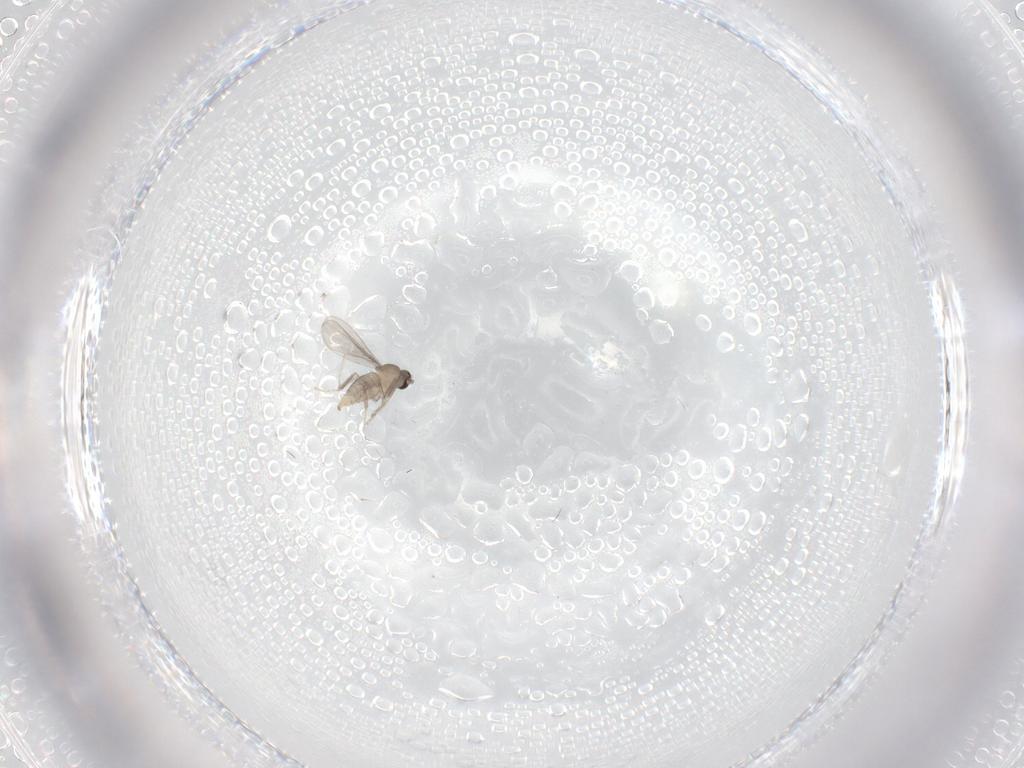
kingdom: Animalia
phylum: Arthropoda
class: Insecta
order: Diptera
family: Cecidomyiidae
